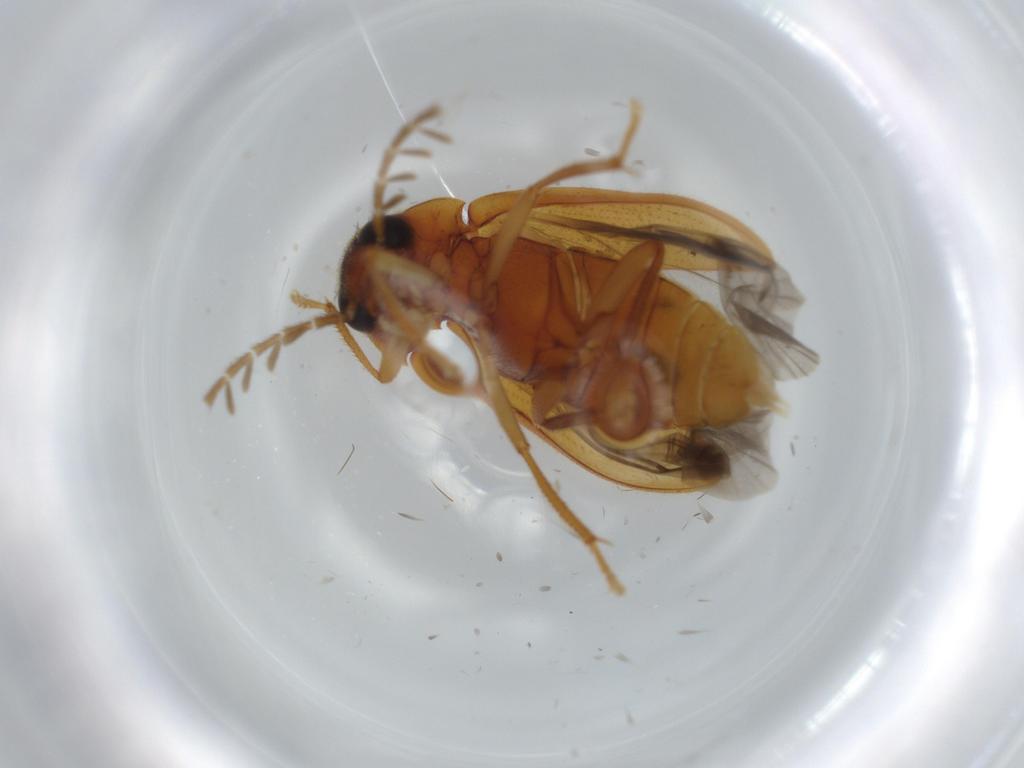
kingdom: Animalia
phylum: Arthropoda
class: Insecta
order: Coleoptera
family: Ptilodactylidae
